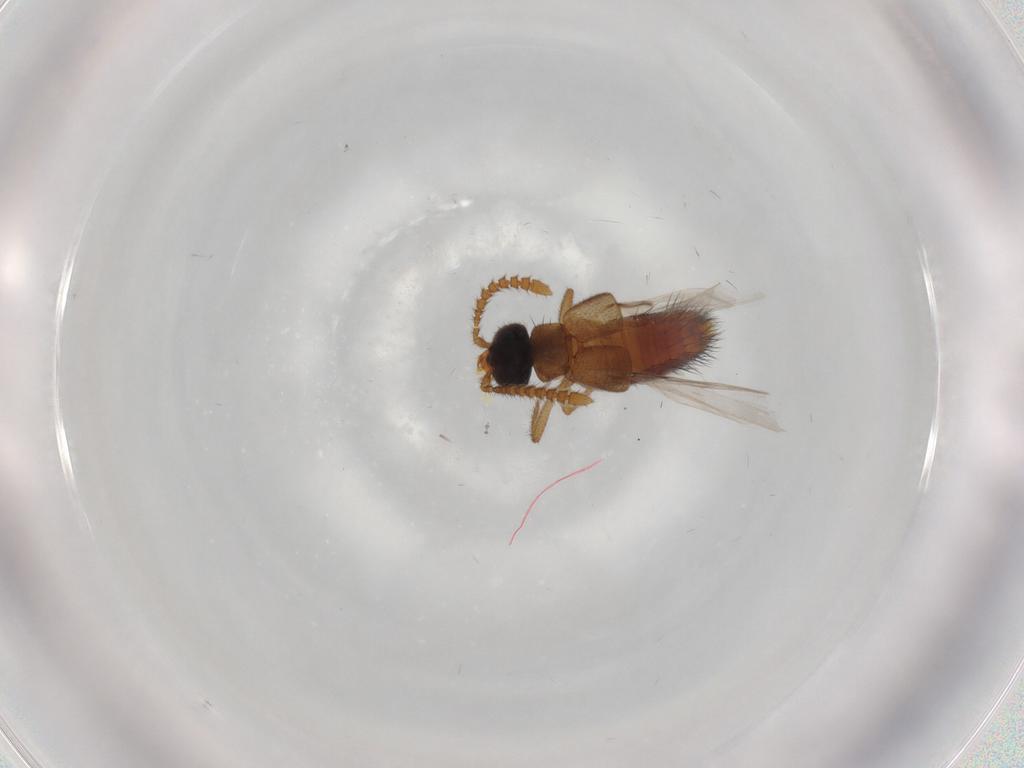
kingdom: Animalia
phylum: Arthropoda
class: Insecta
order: Coleoptera
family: Staphylinidae
